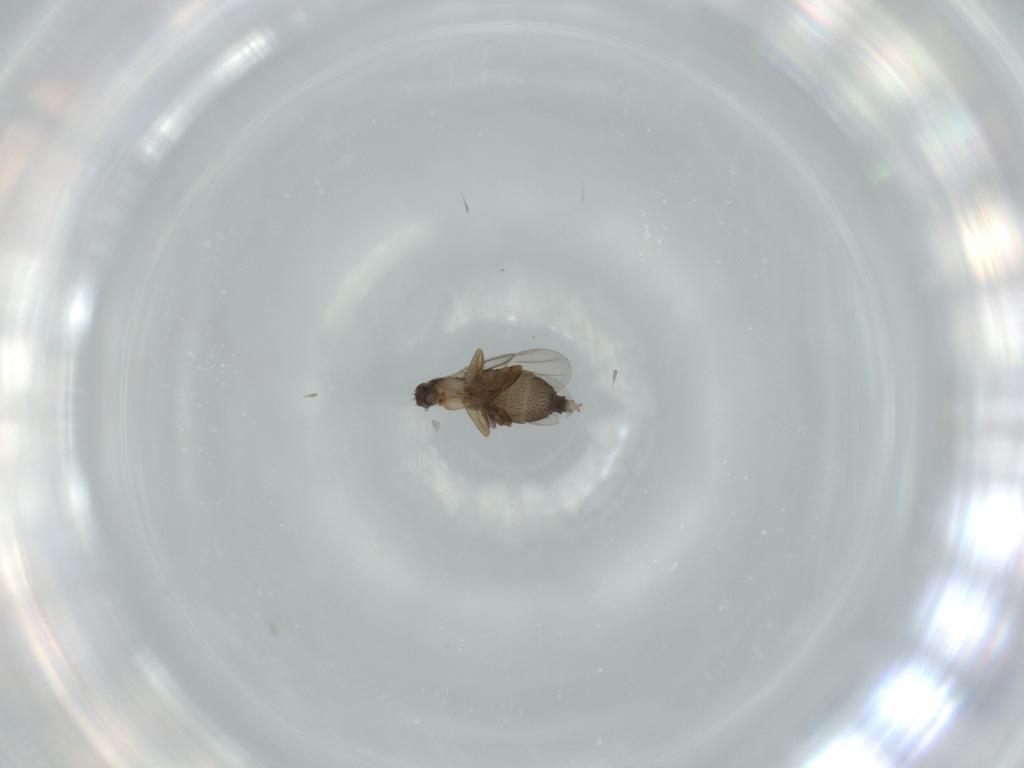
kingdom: Animalia
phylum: Arthropoda
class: Insecta
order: Diptera
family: Phoridae
